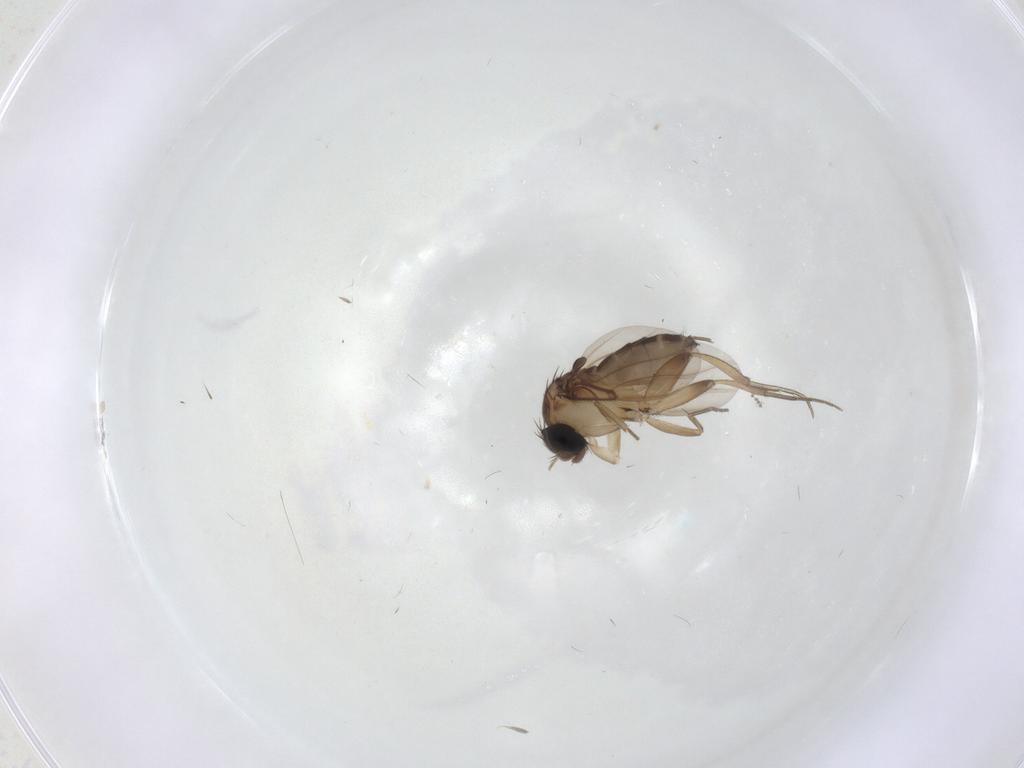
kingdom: Animalia
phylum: Arthropoda
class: Insecta
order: Diptera
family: Phoridae
